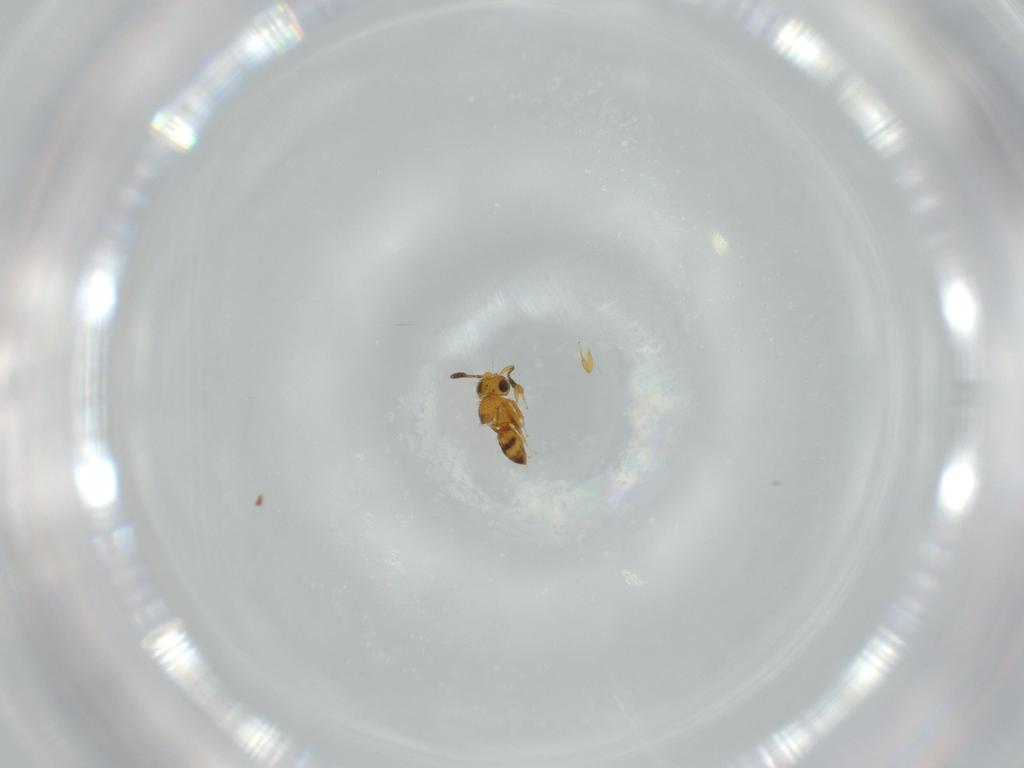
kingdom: Animalia
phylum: Arthropoda
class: Insecta
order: Hymenoptera
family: Scelionidae
